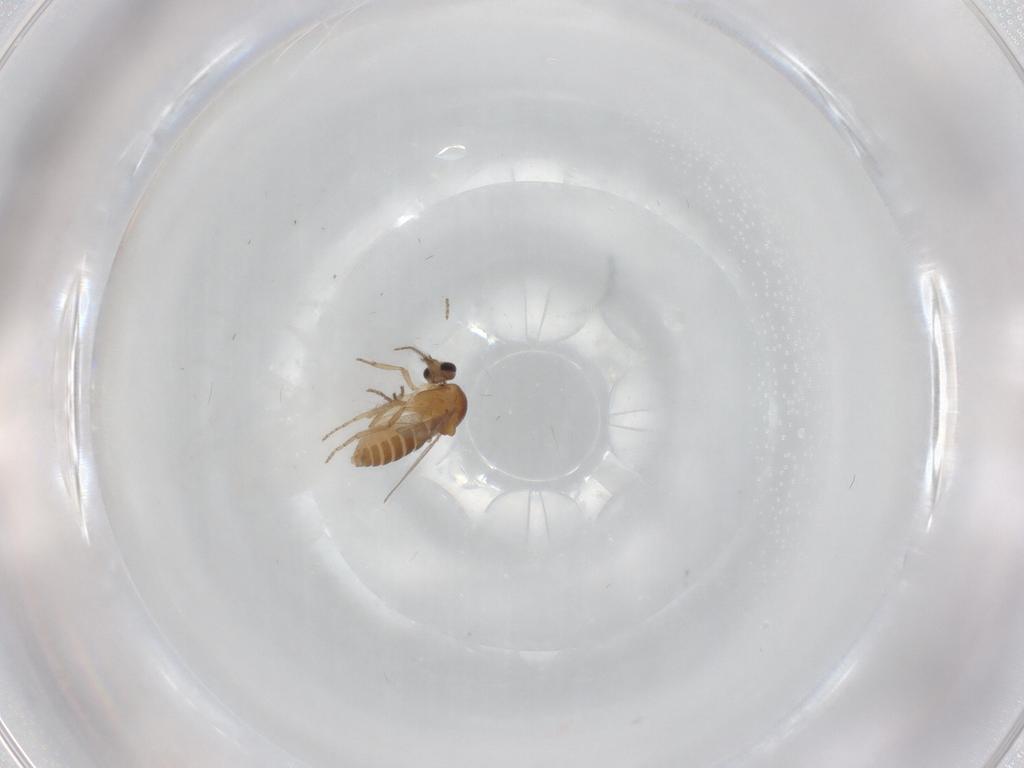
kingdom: Animalia
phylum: Arthropoda
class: Insecta
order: Diptera
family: Ceratopogonidae
